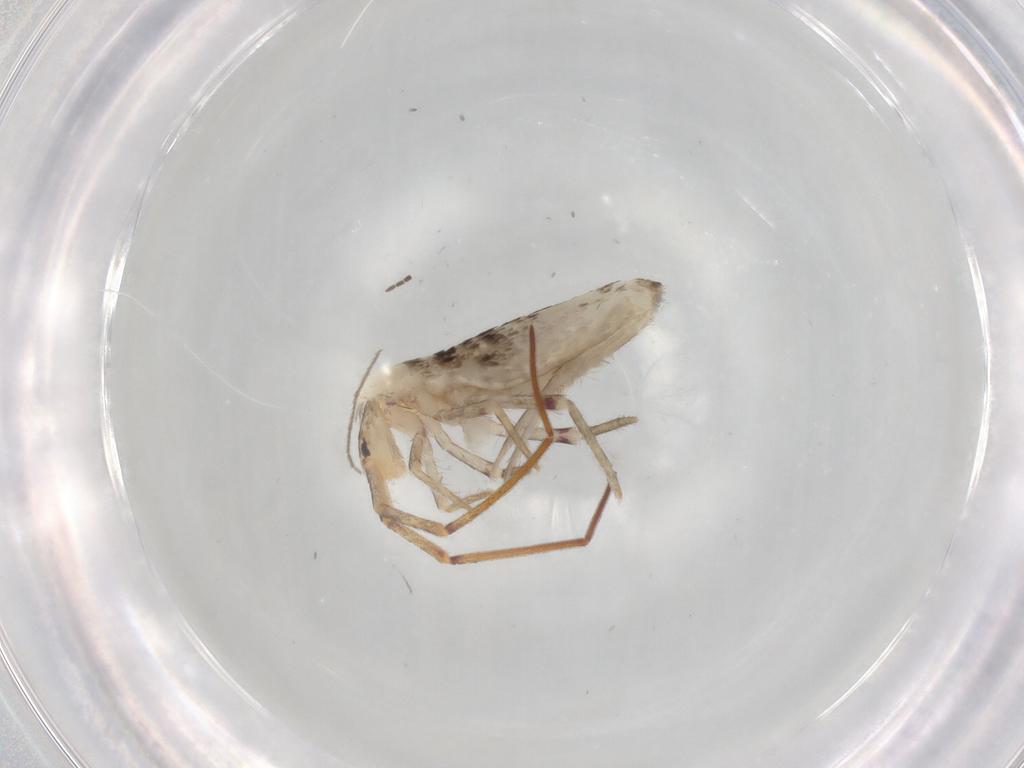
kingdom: Animalia
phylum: Arthropoda
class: Collembola
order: Poduromorpha
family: Hypogastruridae
